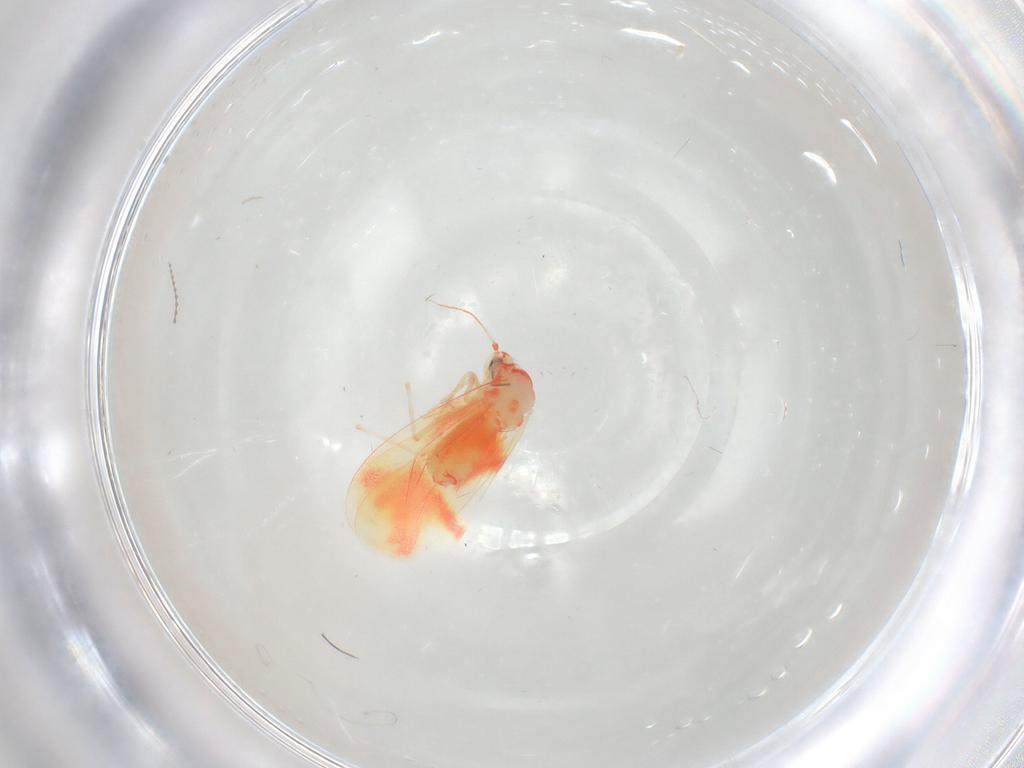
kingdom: Animalia
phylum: Arthropoda
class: Insecta
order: Hemiptera
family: Aleyrodidae
